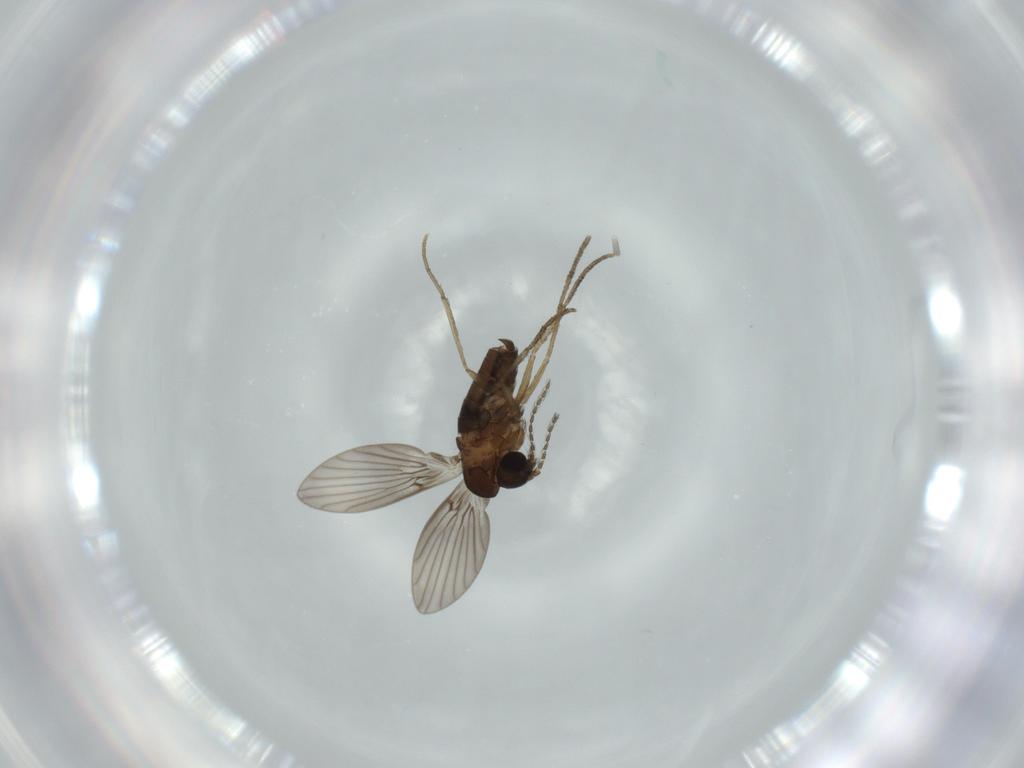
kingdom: Animalia
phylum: Arthropoda
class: Insecta
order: Diptera
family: Psychodidae
